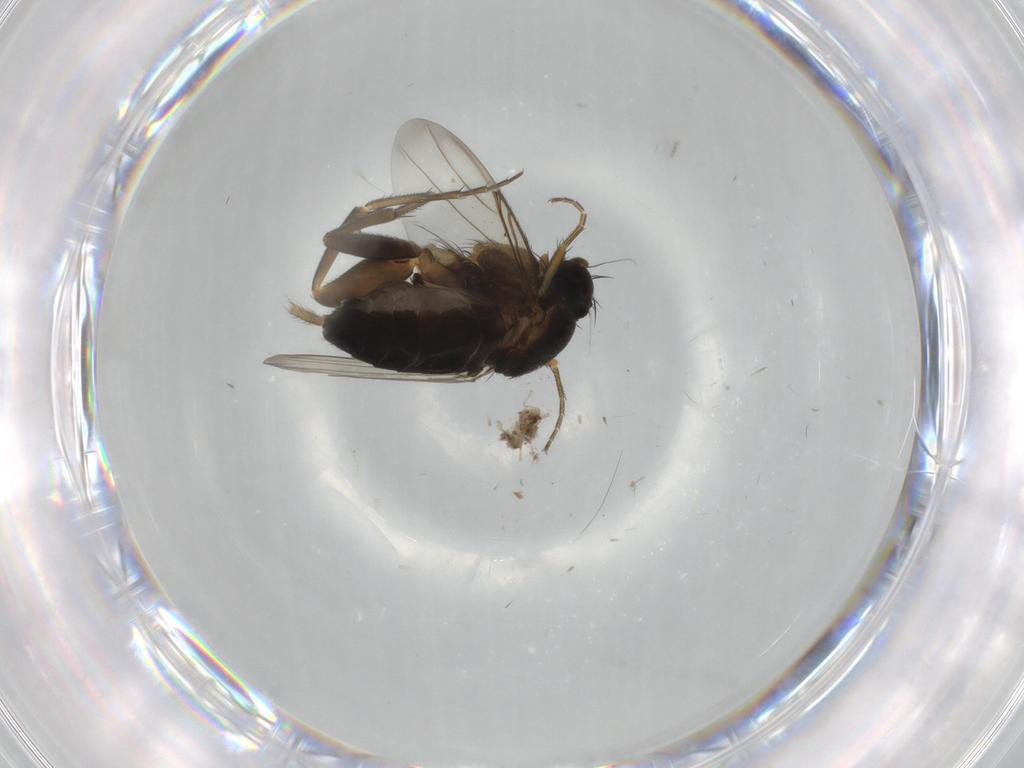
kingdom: Animalia
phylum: Arthropoda
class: Insecta
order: Diptera
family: Phoridae
